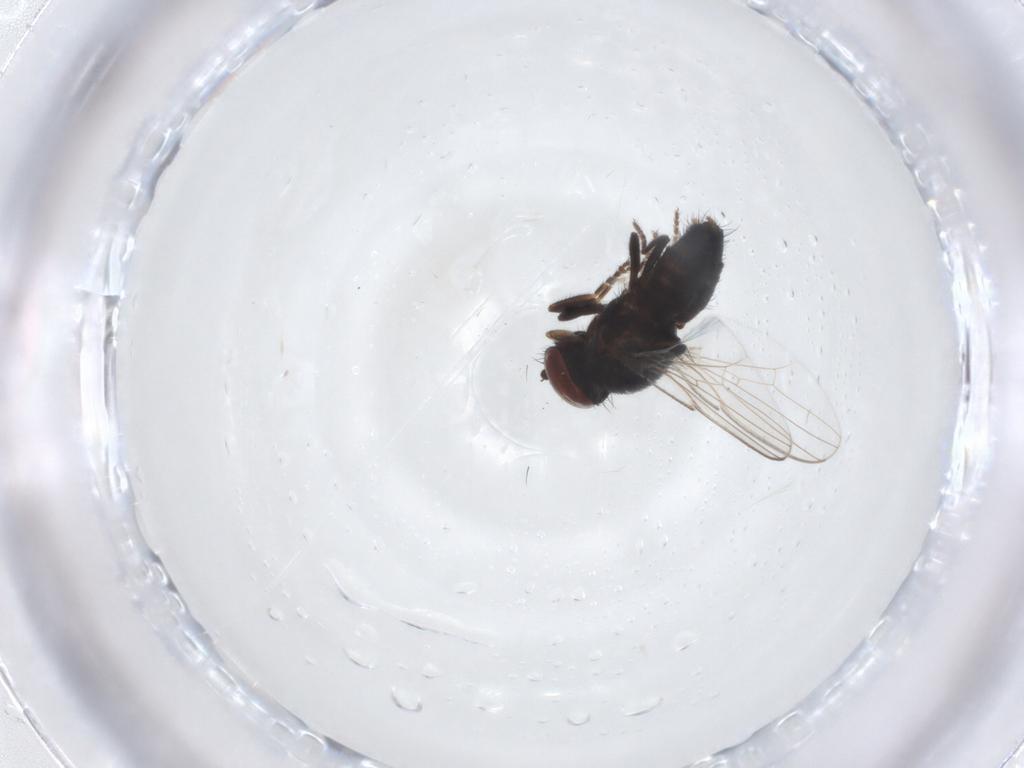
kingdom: Animalia
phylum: Arthropoda
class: Insecta
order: Diptera
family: Milichiidae
